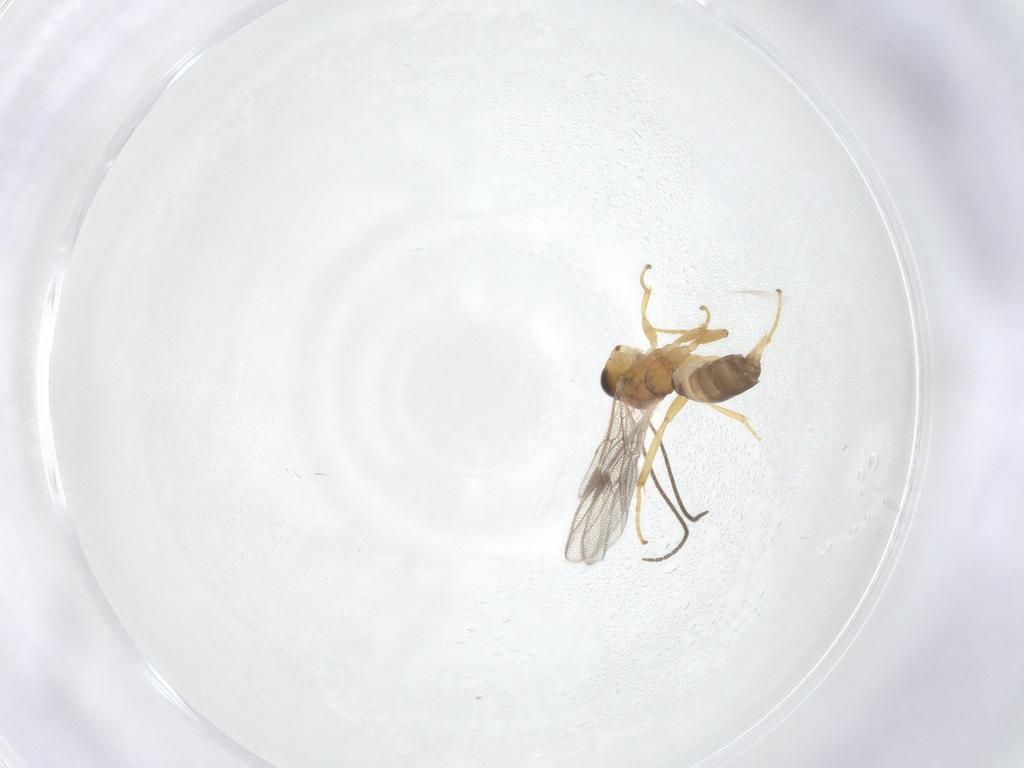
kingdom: Animalia
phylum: Arthropoda
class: Insecta
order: Hymenoptera
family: Ichneumonidae
